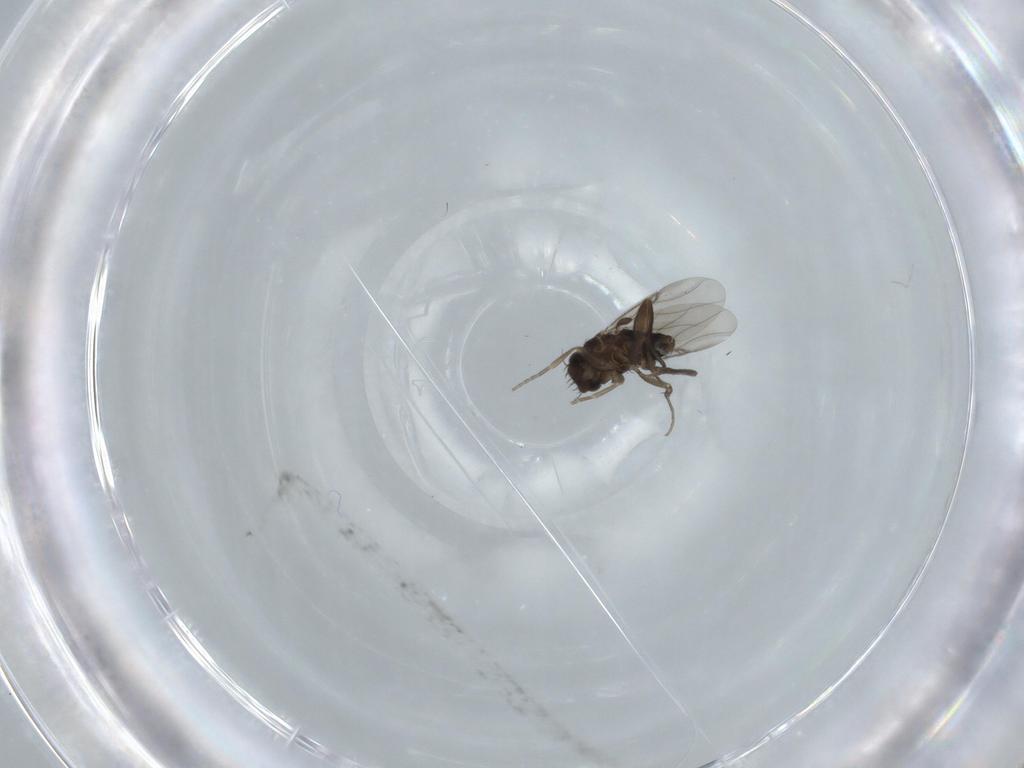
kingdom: Animalia
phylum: Arthropoda
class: Insecta
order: Diptera
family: Phoridae
